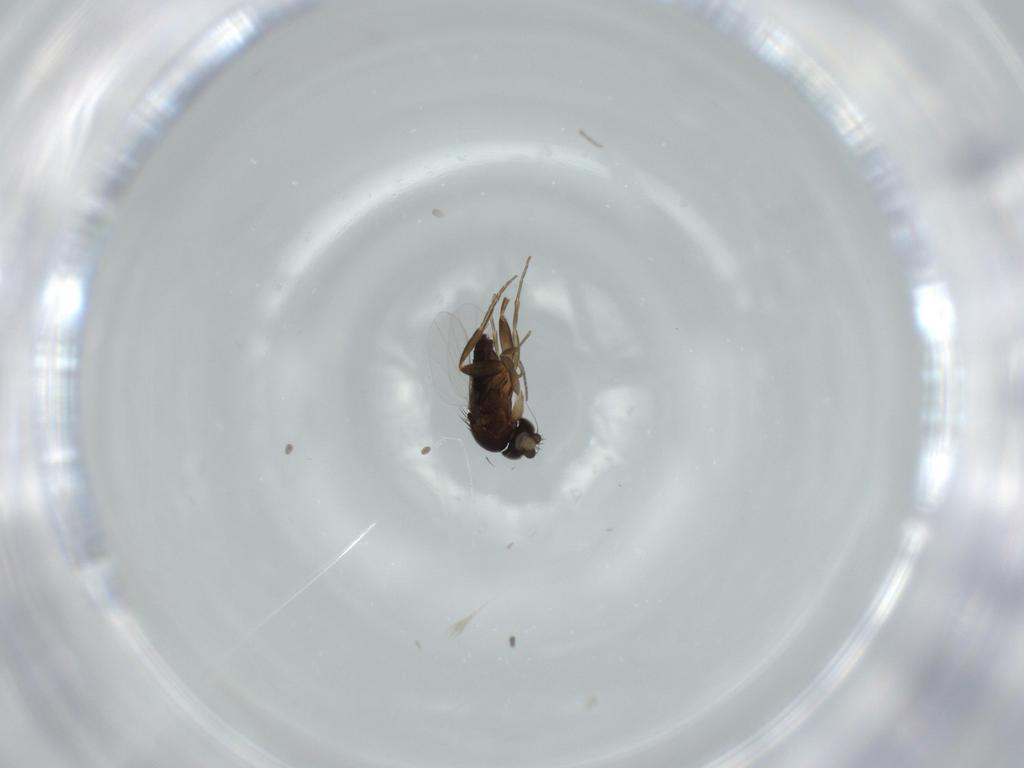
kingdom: Animalia
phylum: Arthropoda
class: Insecta
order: Diptera
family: Phoridae
